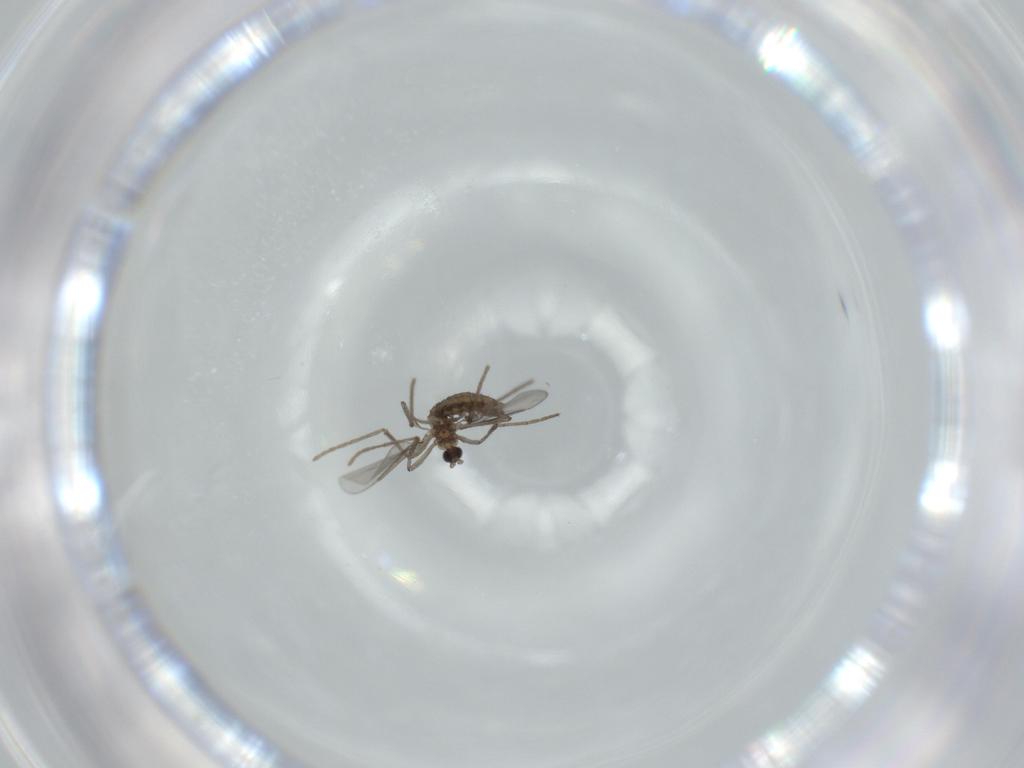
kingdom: Animalia
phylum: Arthropoda
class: Insecta
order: Diptera
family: Cecidomyiidae
